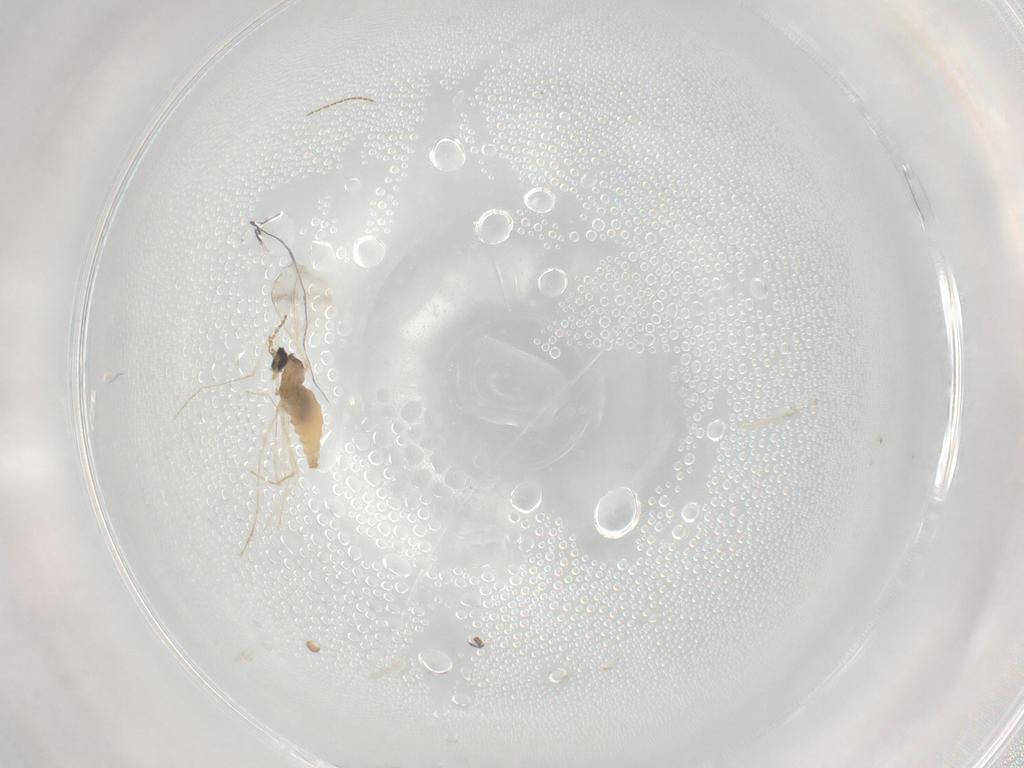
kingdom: Animalia
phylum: Arthropoda
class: Insecta
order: Diptera
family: Cecidomyiidae
